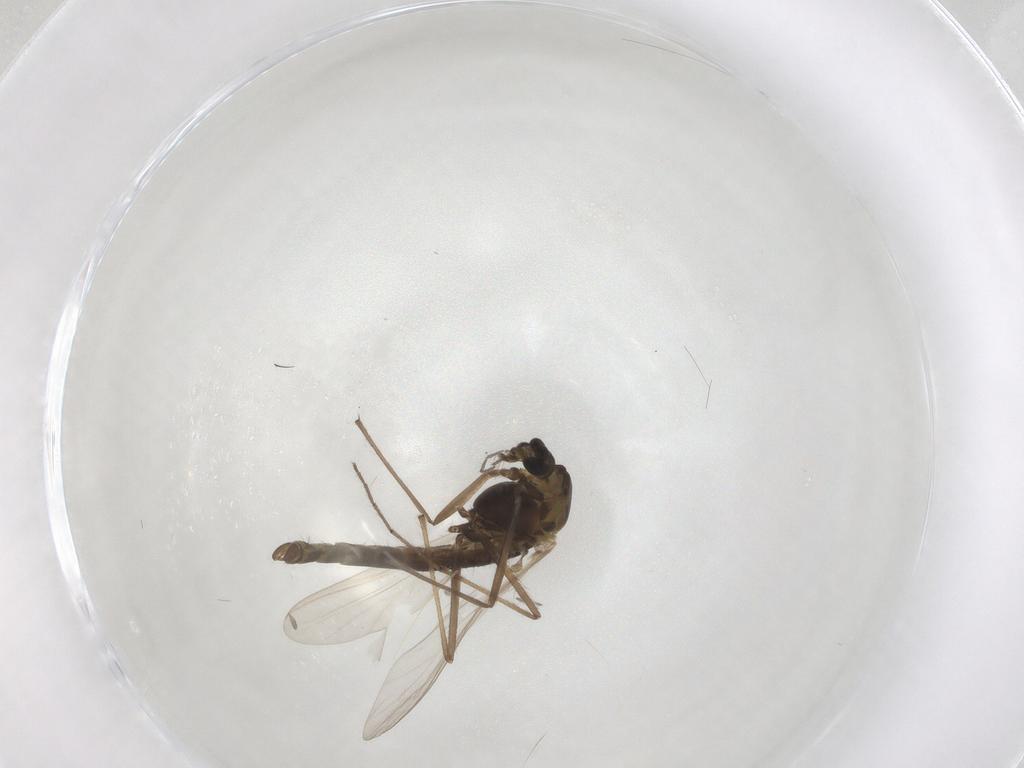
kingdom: Animalia
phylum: Arthropoda
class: Insecta
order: Diptera
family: Chironomidae
